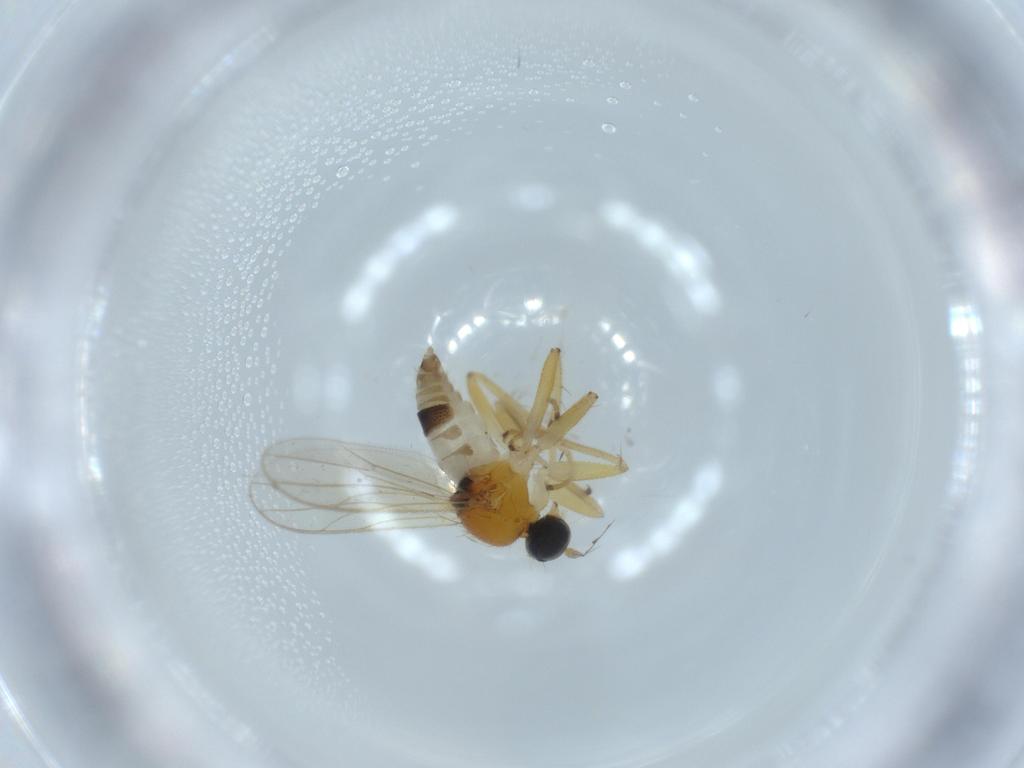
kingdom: Animalia
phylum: Arthropoda
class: Insecta
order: Diptera
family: Hybotidae
